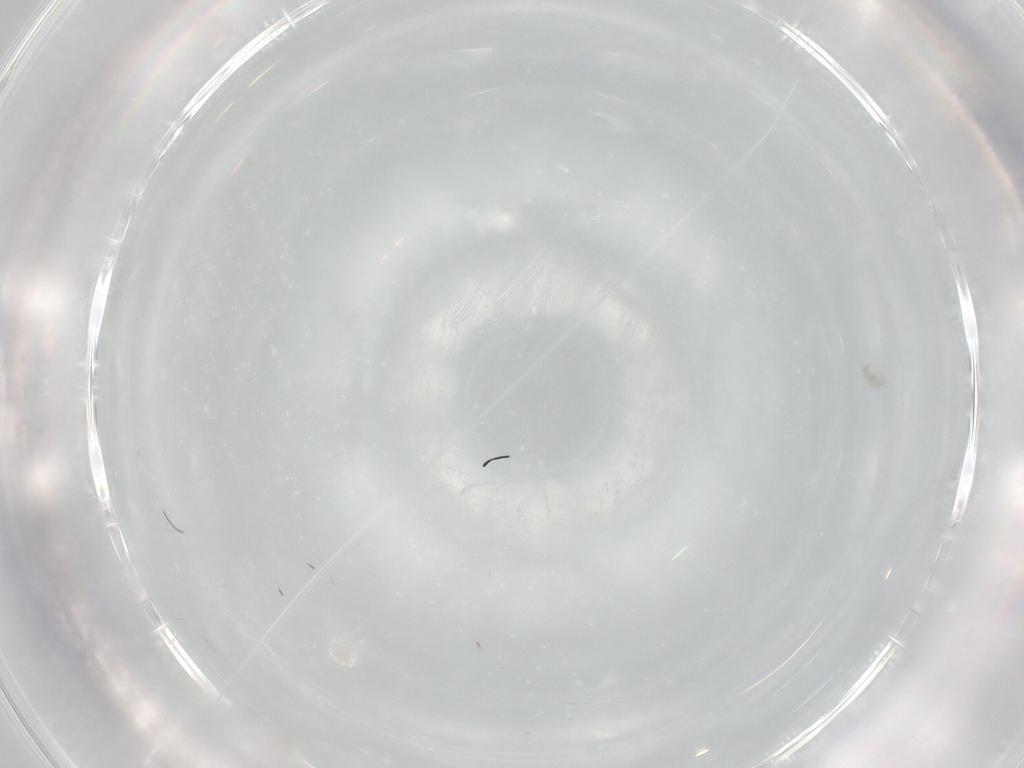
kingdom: Animalia
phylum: Arthropoda
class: Collembola
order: Entomobryomorpha
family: Entomobryidae
